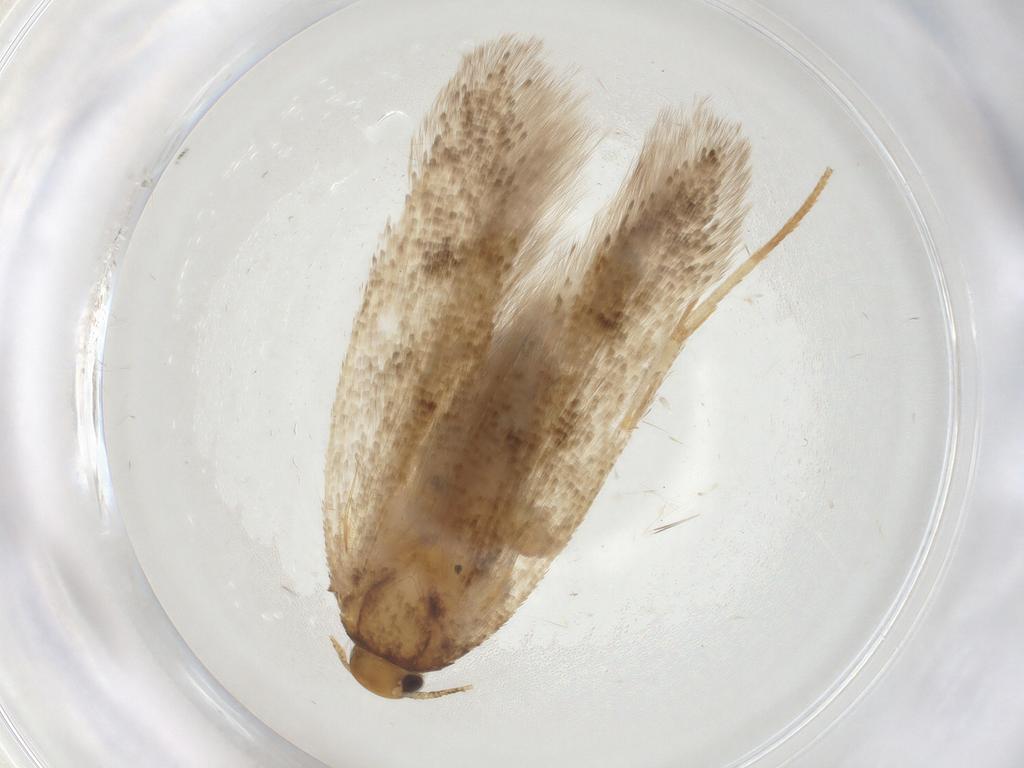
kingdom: Animalia
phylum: Arthropoda
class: Insecta
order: Lepidoptera
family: Gelechiidae
